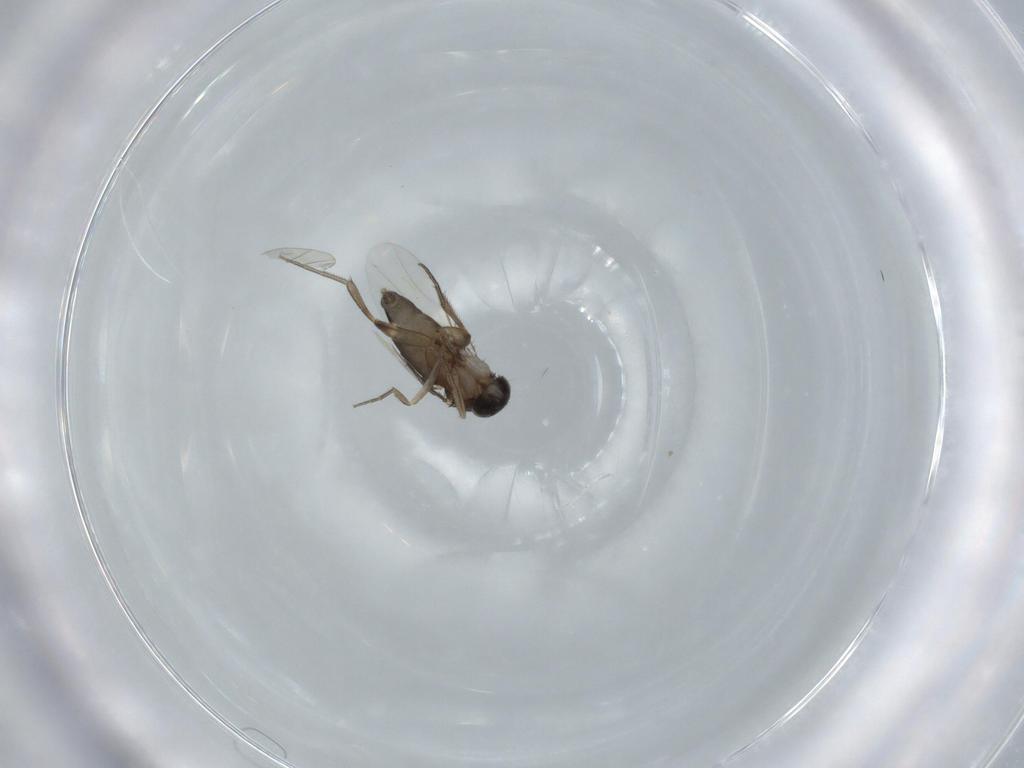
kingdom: Animalia
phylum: Arthropoda
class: Insecta
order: Diptera
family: Phoridae
